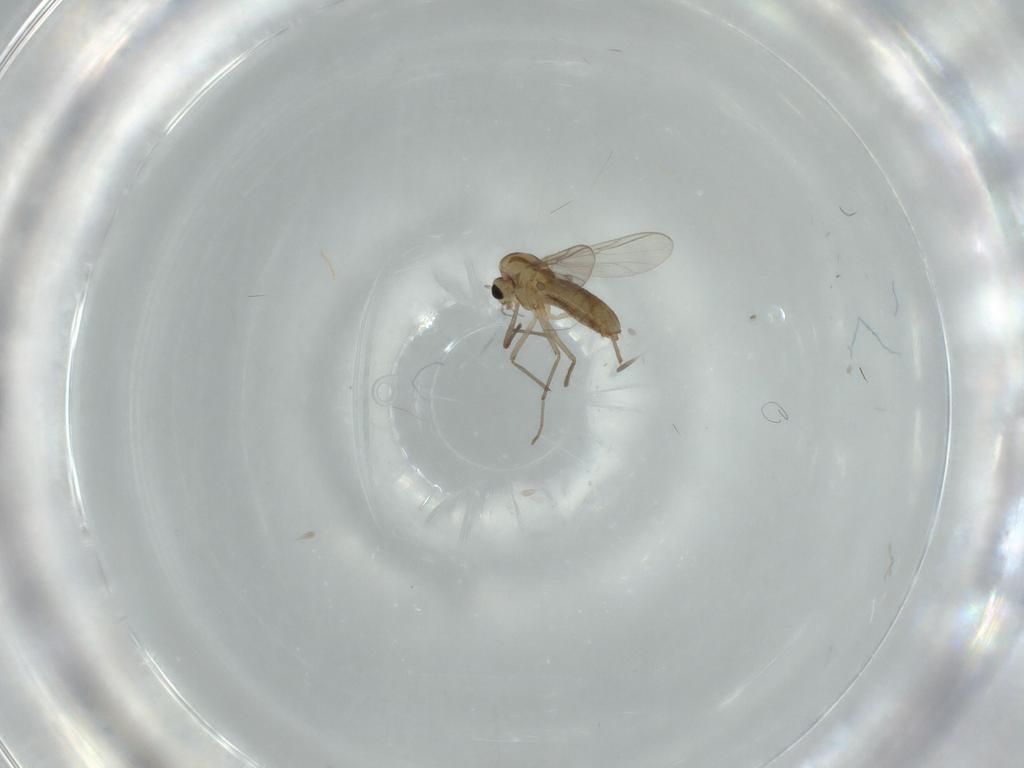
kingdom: Animalia
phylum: Arthropoda
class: Insecta
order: Diptera
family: Chironomidae
